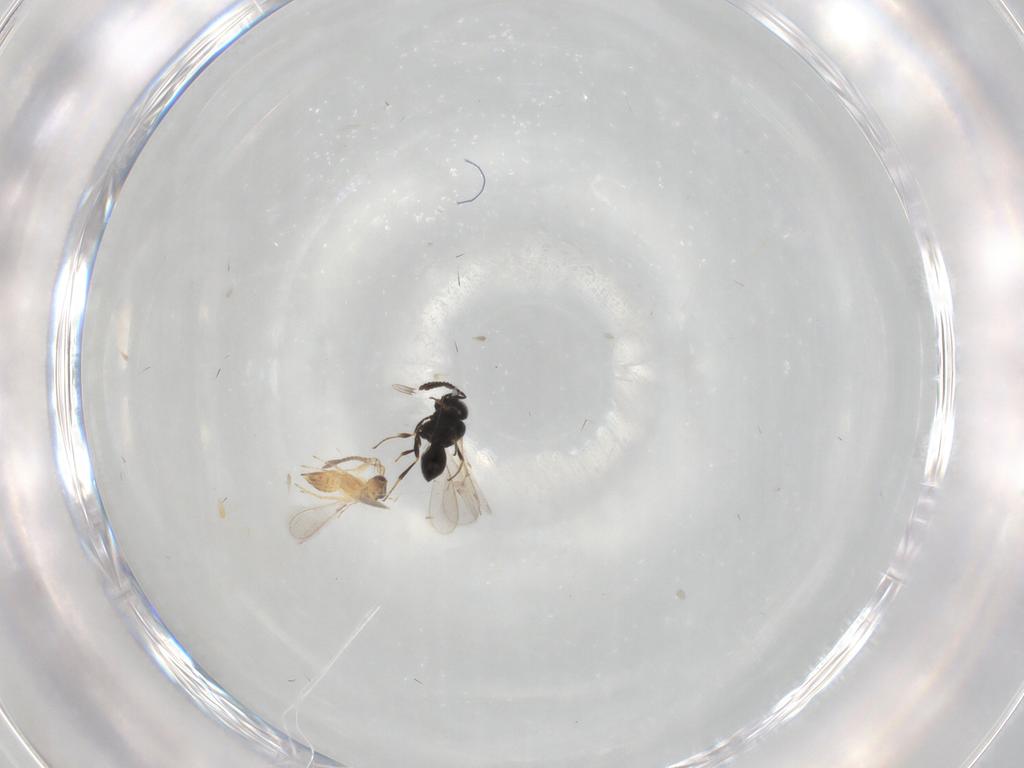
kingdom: Animalia
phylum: Arthropoda
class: Insecta
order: Hymenoptera
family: Scelionidae
